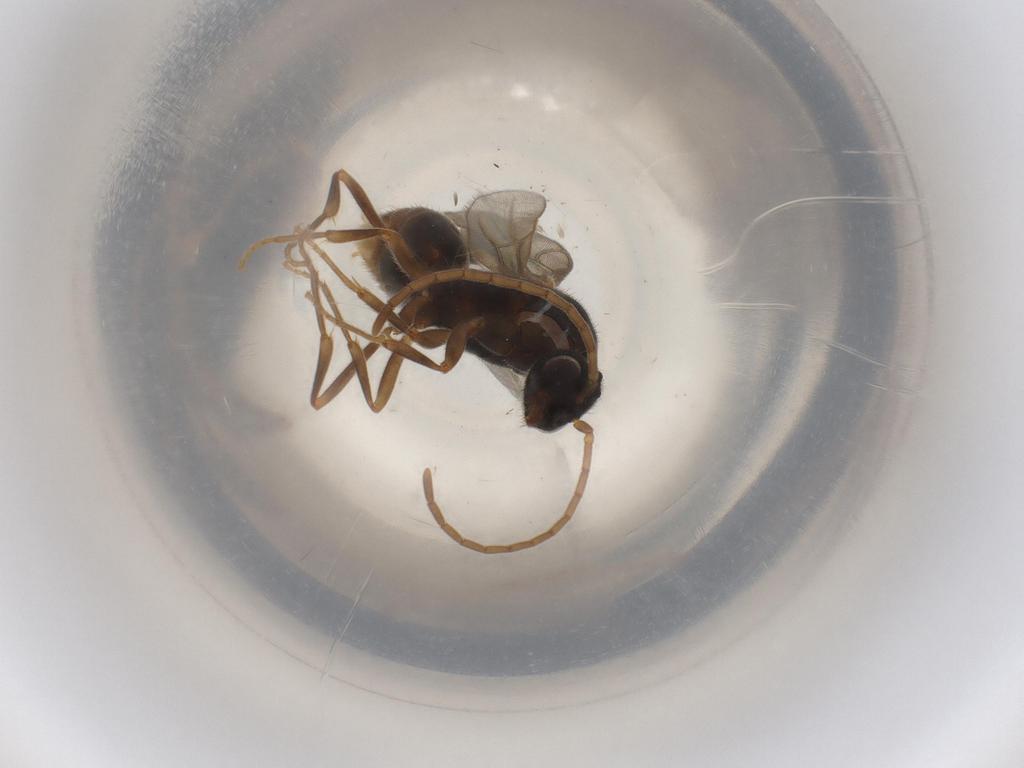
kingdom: Animalia
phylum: Arthropoda
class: Insecta
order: Hymenoptera
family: Formicidae
